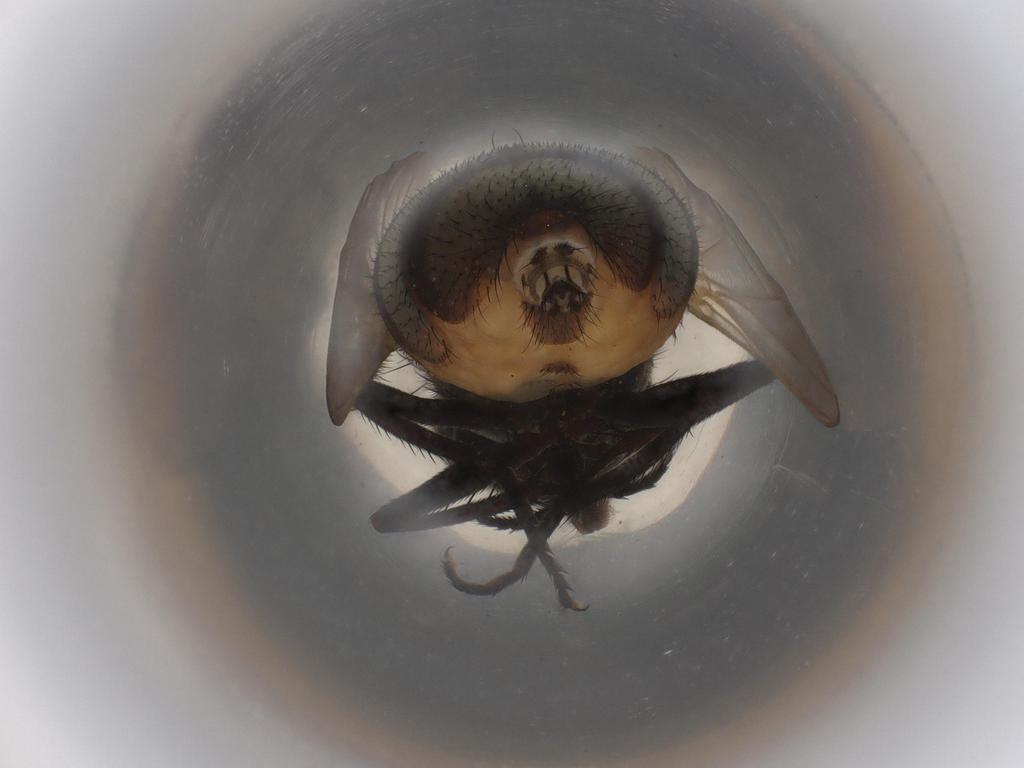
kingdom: Animalia
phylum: Arthropoda
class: Insecta
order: Diptera
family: Muscidae
